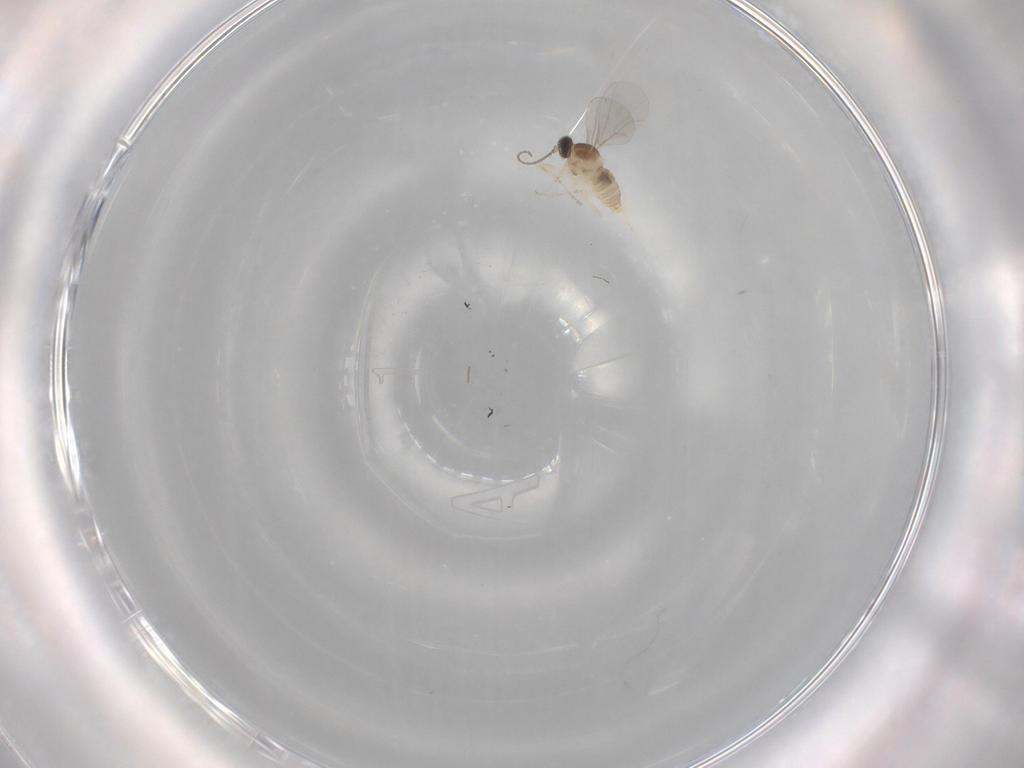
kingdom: Animalia
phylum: Arthropoda
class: Insecta
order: Diptera
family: Cecidomyiidae
